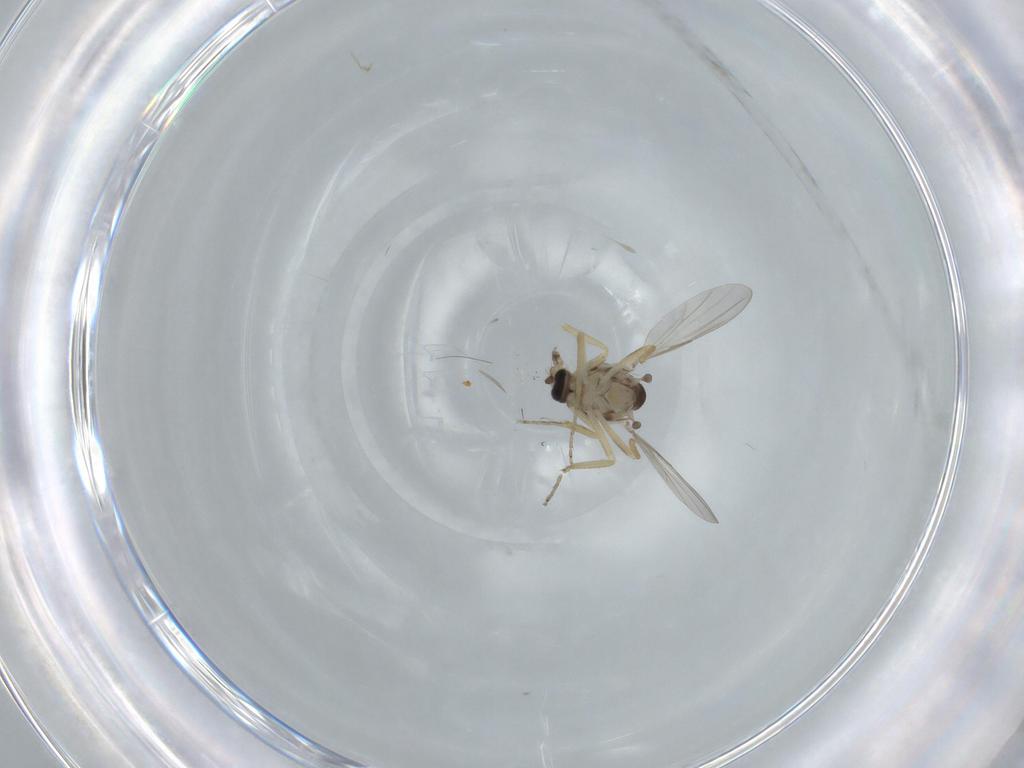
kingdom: Animalia
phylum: Arthropoda
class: Insecta
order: Diptera
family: Ceratopogonidae
